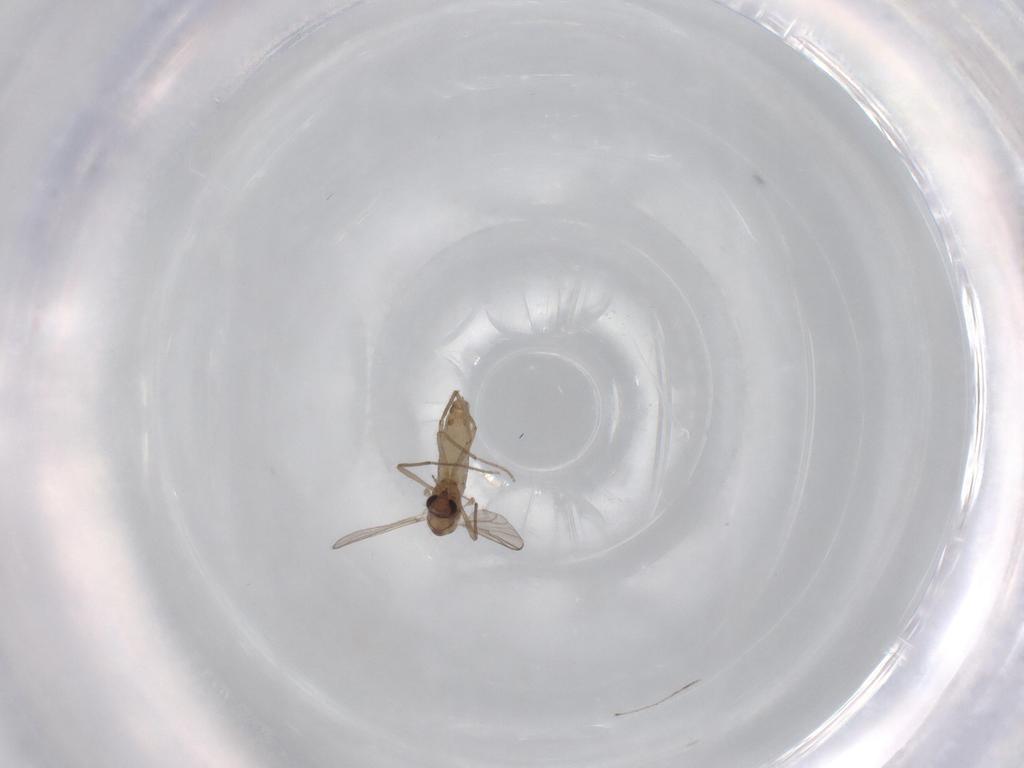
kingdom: Animalia
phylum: Arthropoda
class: Insecta
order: Diptera
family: Chironomidae
